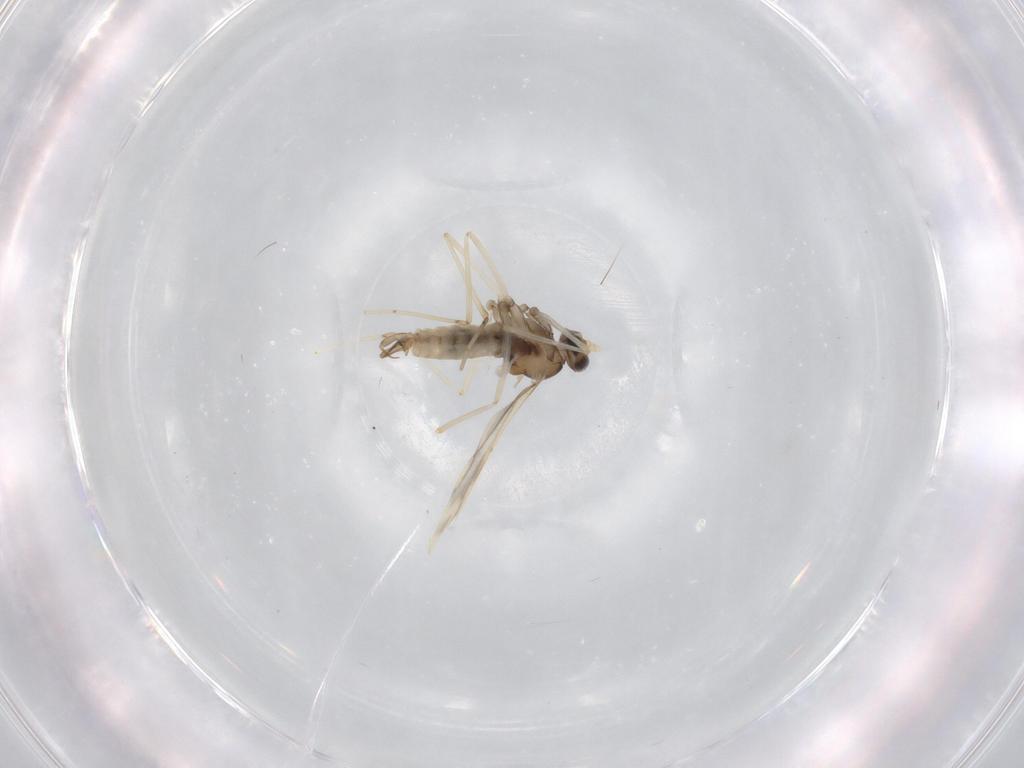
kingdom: Animalia
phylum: Arthropoda
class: Insecta
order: Diptera
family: Cecidomyiidae
